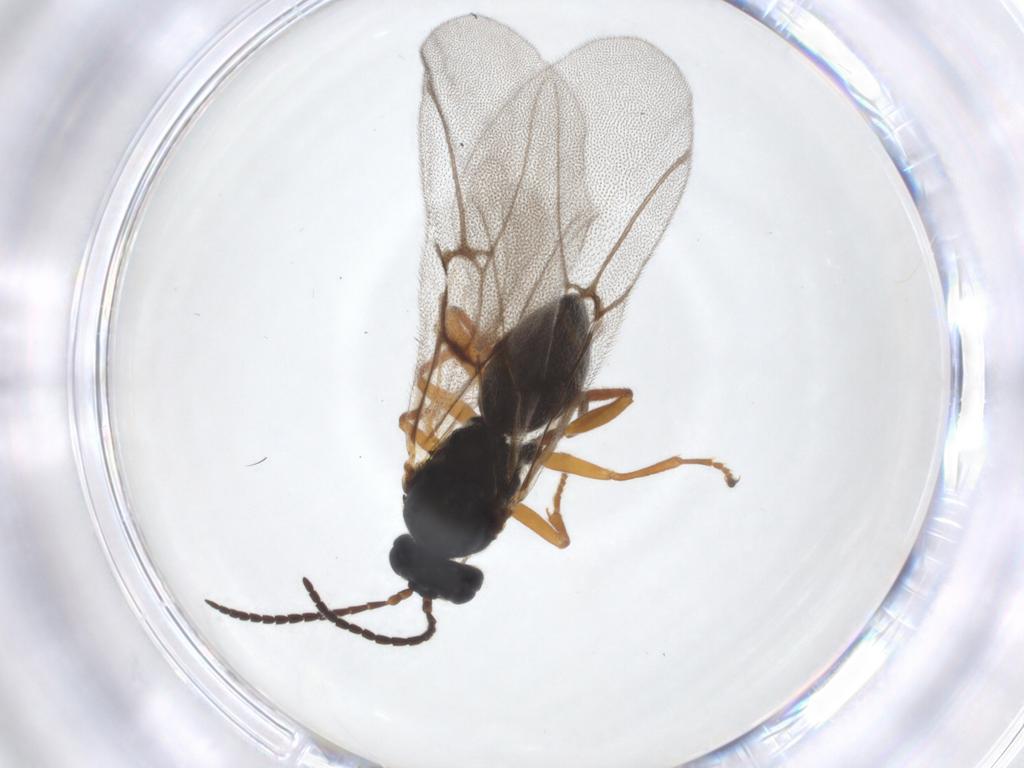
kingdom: Animalia
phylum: Arthropoda
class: Insecta
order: Hymenoptera
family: Cynipidae
